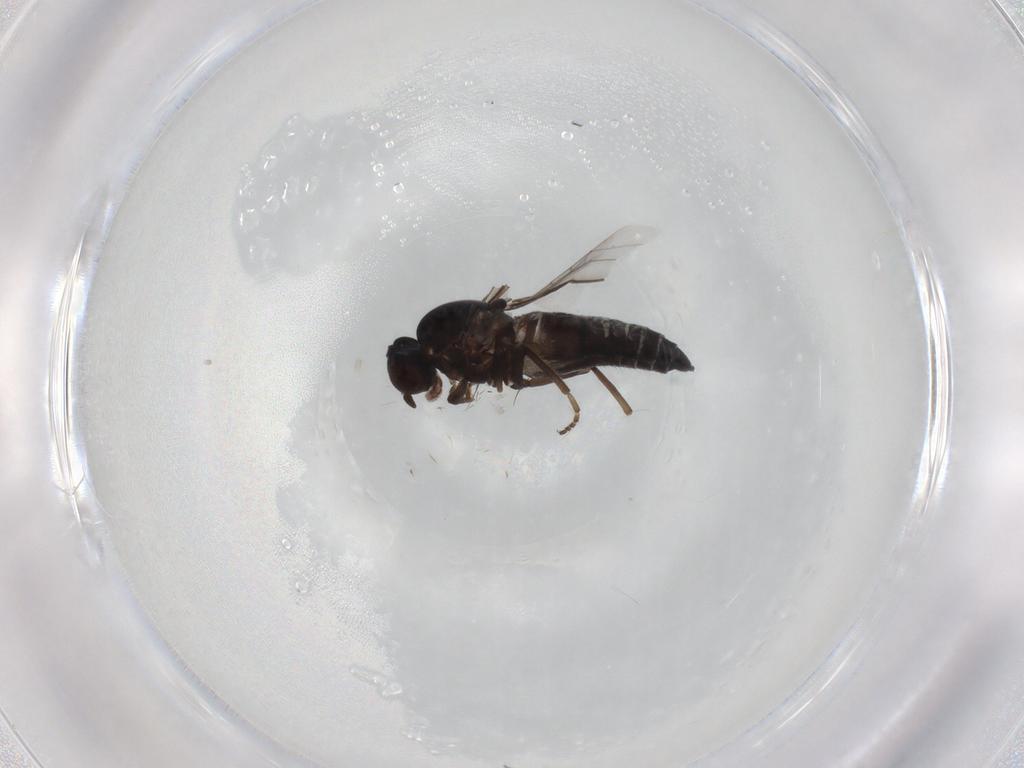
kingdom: Animalia
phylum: Arthropoda
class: Insecta
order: Diptera
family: Scenopinidae
